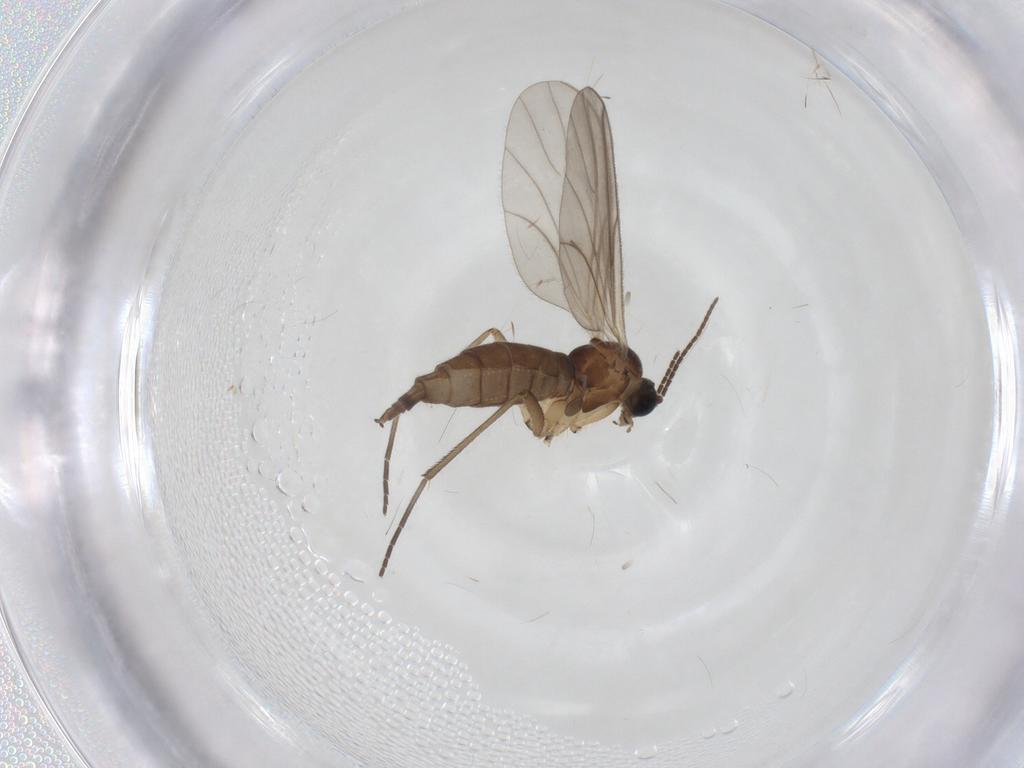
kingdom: Animalia
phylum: Arthropoda
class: Insecta
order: Diptera
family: Sciaridae
